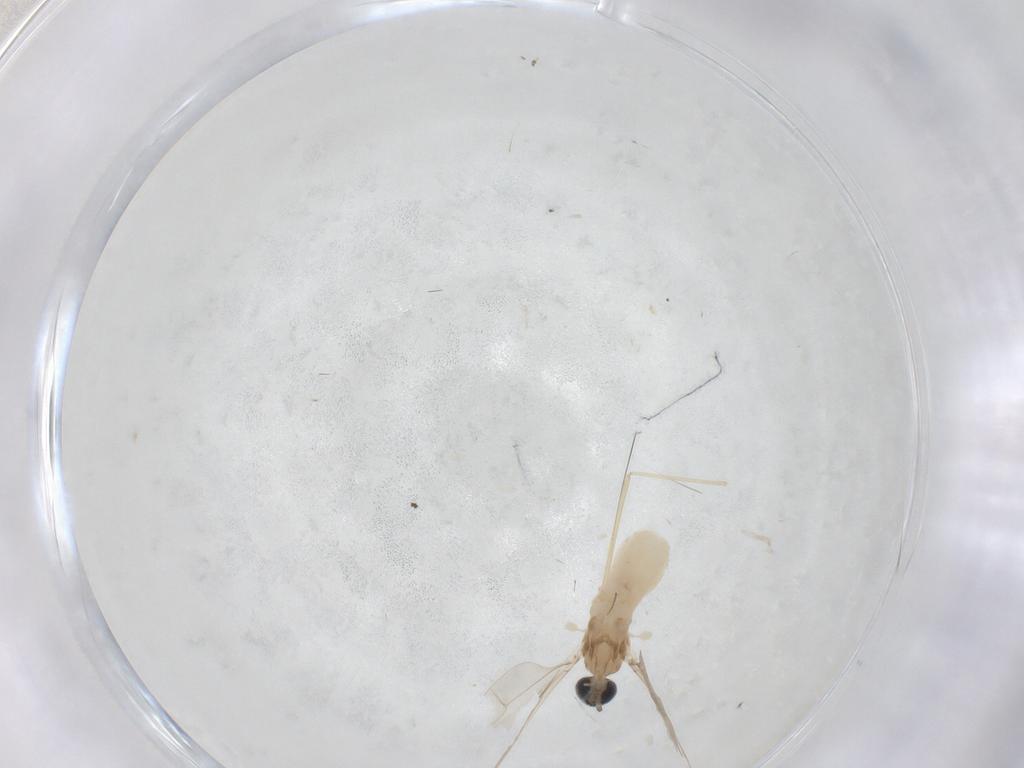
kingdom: Animalia
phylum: Arthropoda
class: Insecta
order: Diptera
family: Cecidomyiidae
